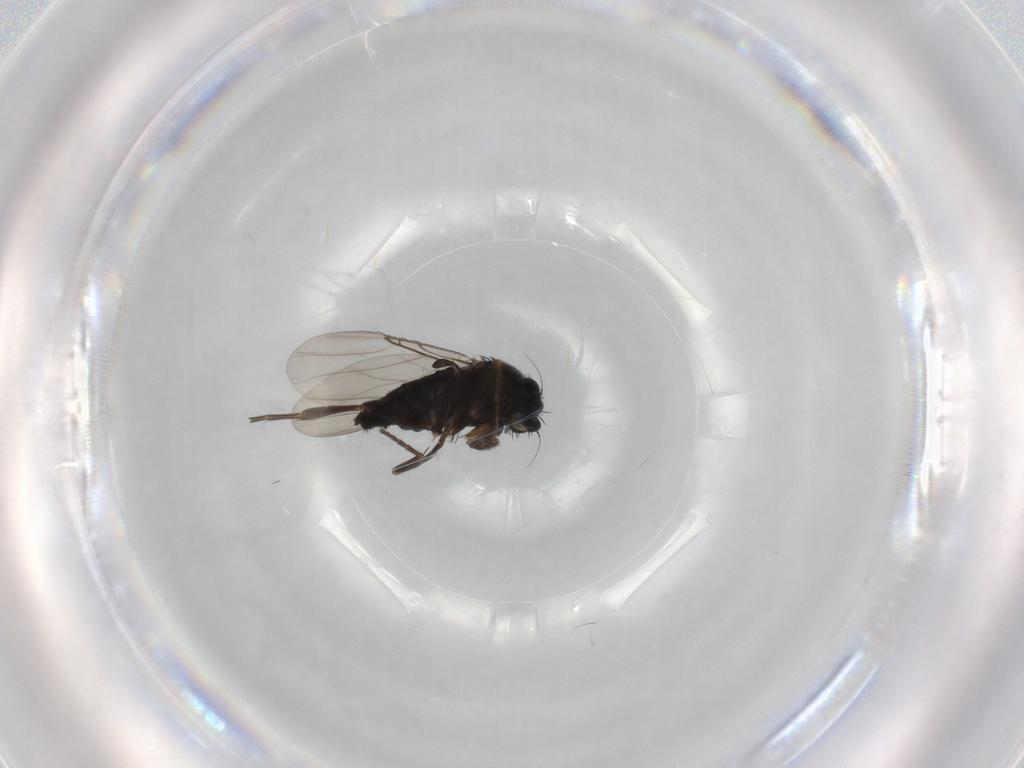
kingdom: Animalia
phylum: Arthropoda
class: Insecta
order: Diptera
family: Phoridae
